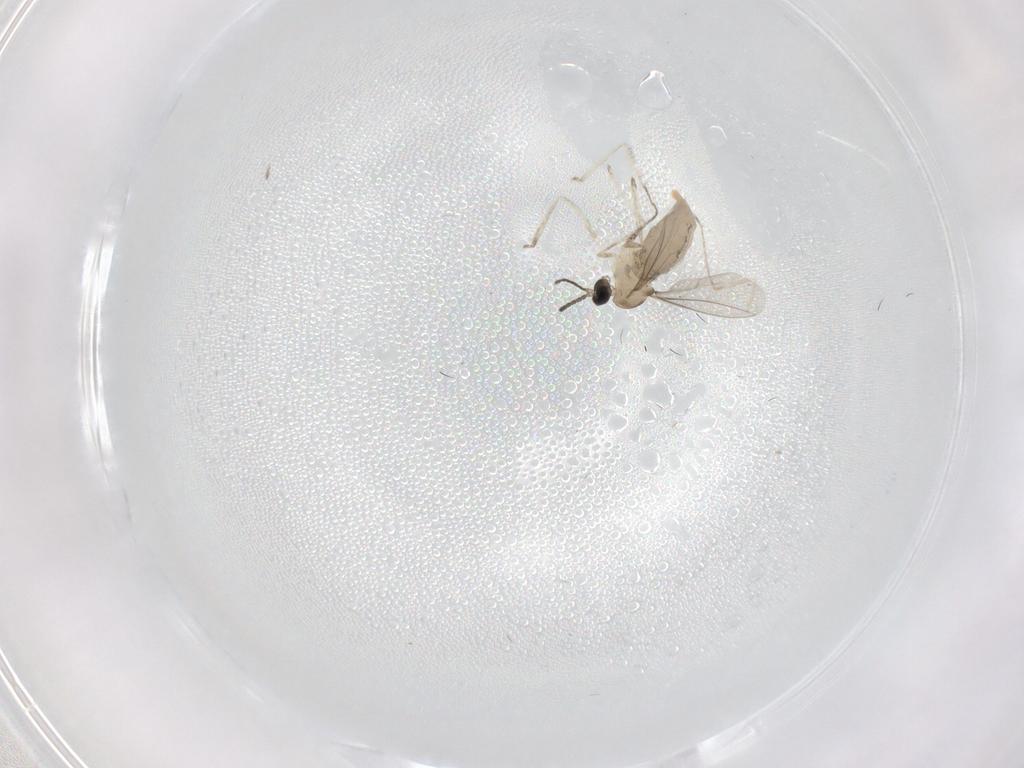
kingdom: Animalia
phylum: Arthropoda
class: Insecta
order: Diptera
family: Cecidomyiidae
